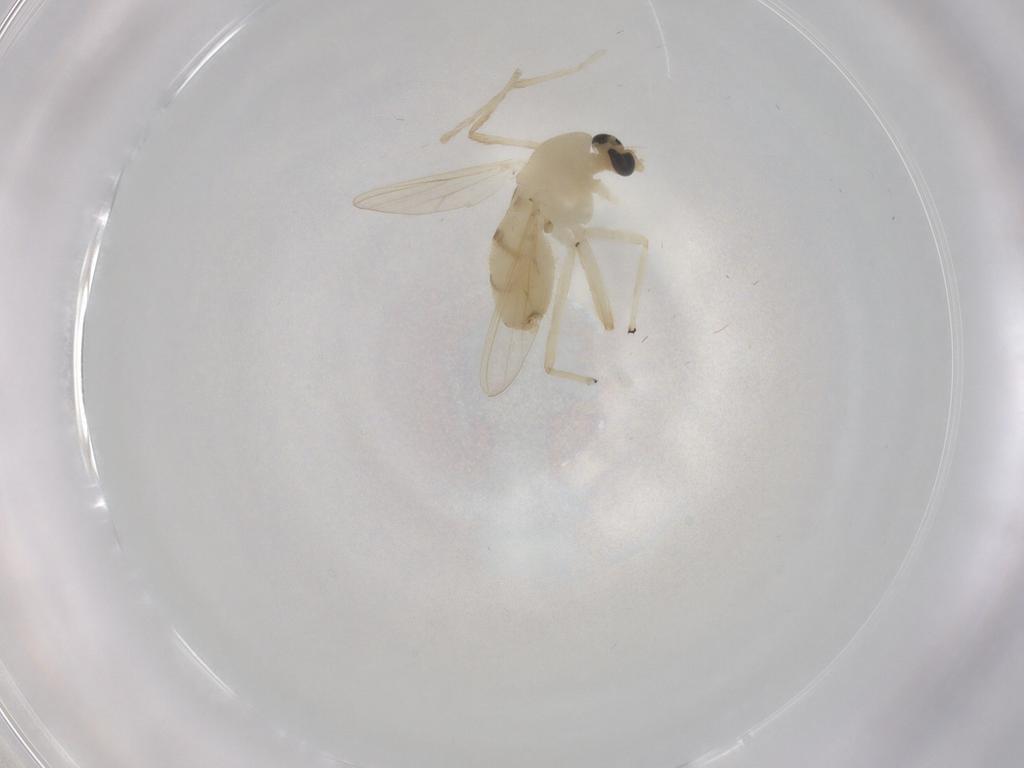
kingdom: Animalia
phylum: Arthropoda
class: Insecta
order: Diptera
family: Chironomidae
